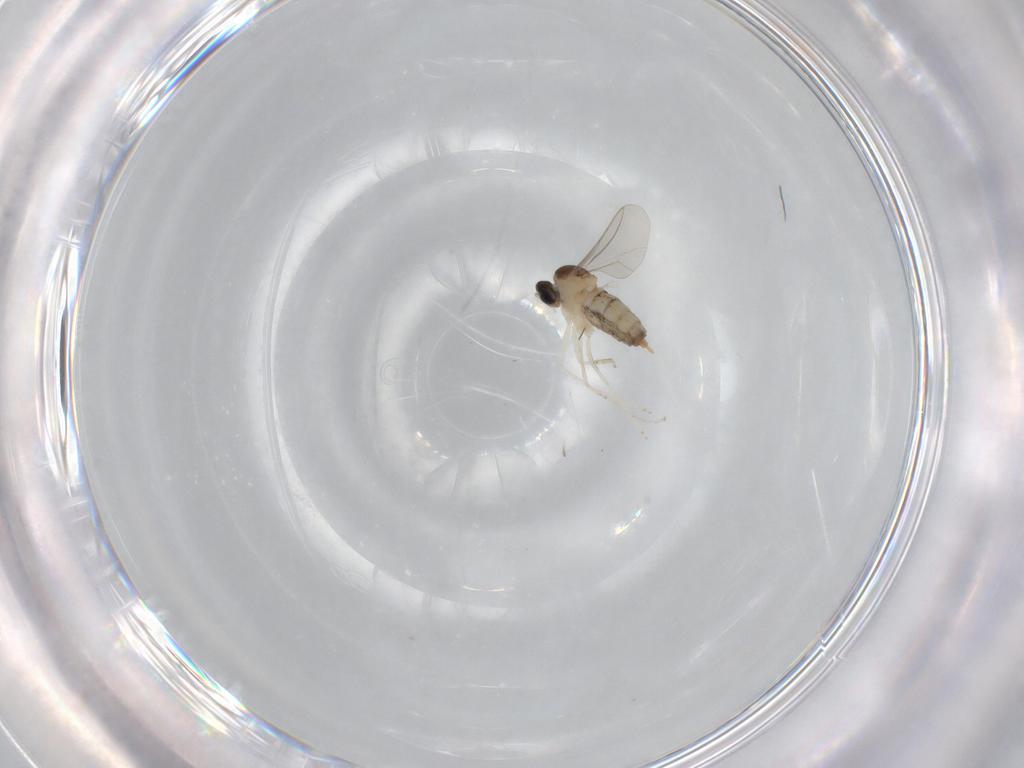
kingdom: Animalia
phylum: Arthropoda
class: Insecta
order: Diptera
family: Cecidomyiidae
